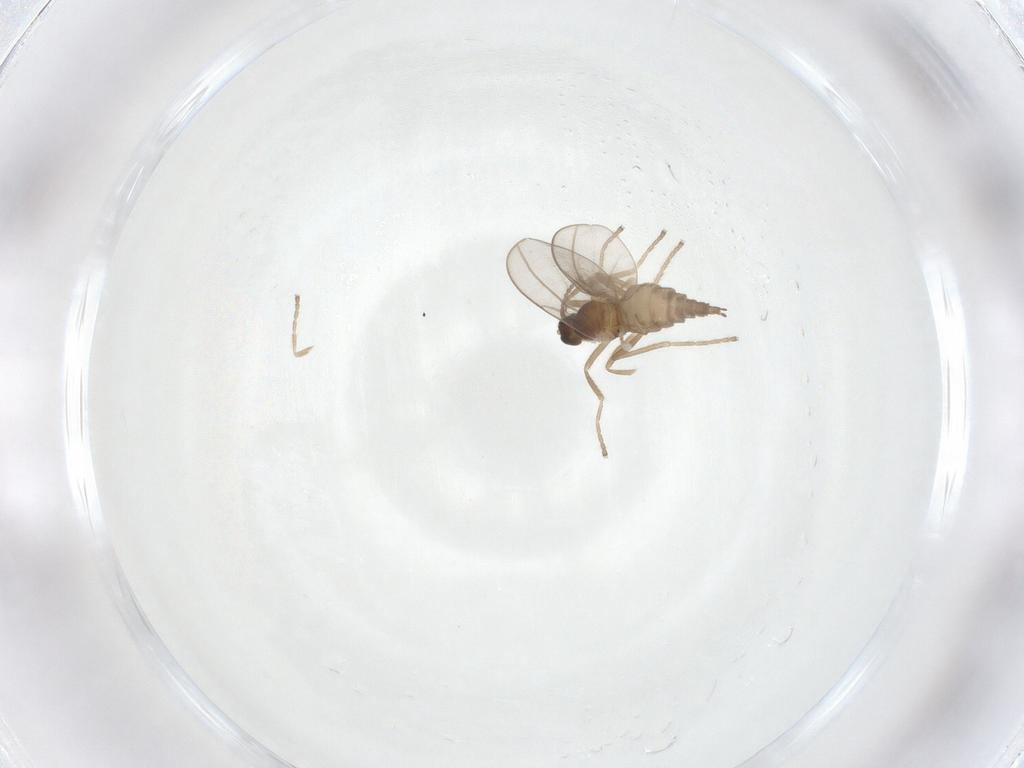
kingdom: Animalia
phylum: Arthropoda
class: Insecta
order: Diptera
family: Cecidomyiidae
